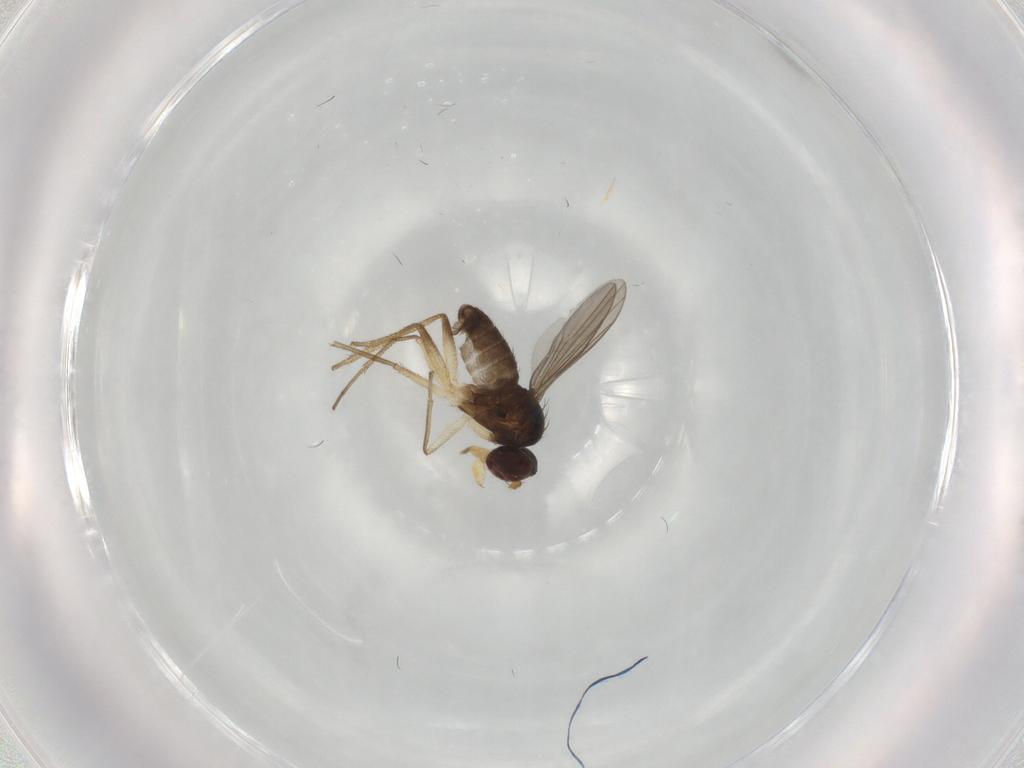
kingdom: Animalia
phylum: Arthropoda
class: Insecta
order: Diptera
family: Dolichopodidae
